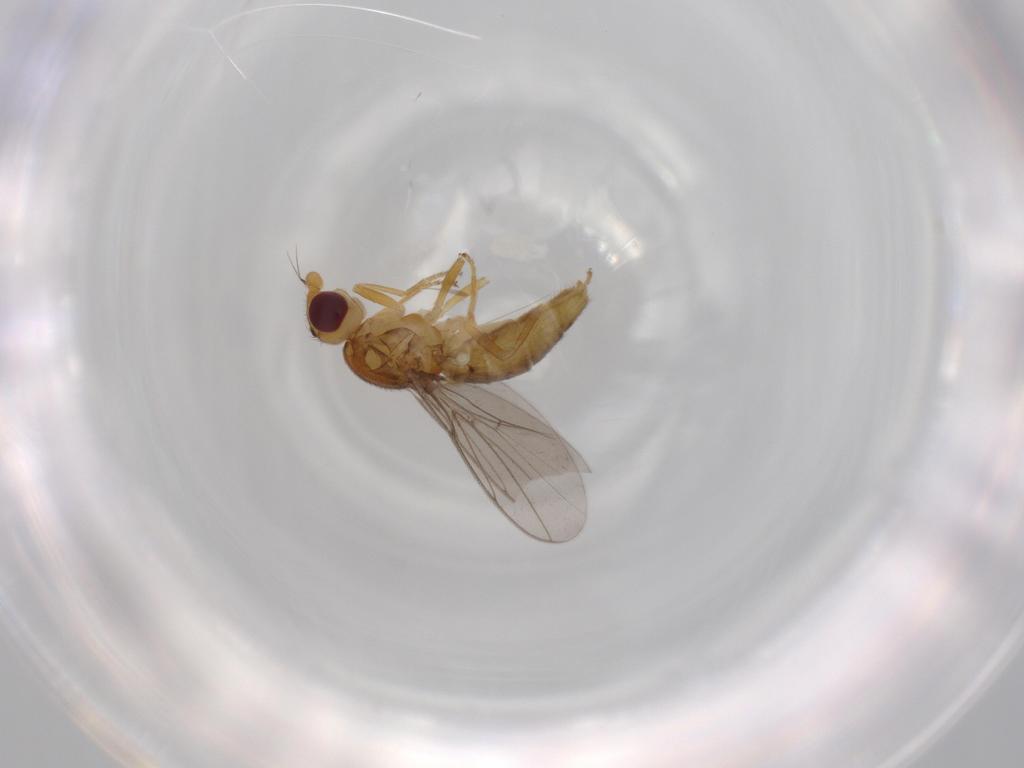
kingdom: Animalia
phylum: Arthropoda
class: Insecta
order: Diptera
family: Chloropidae
